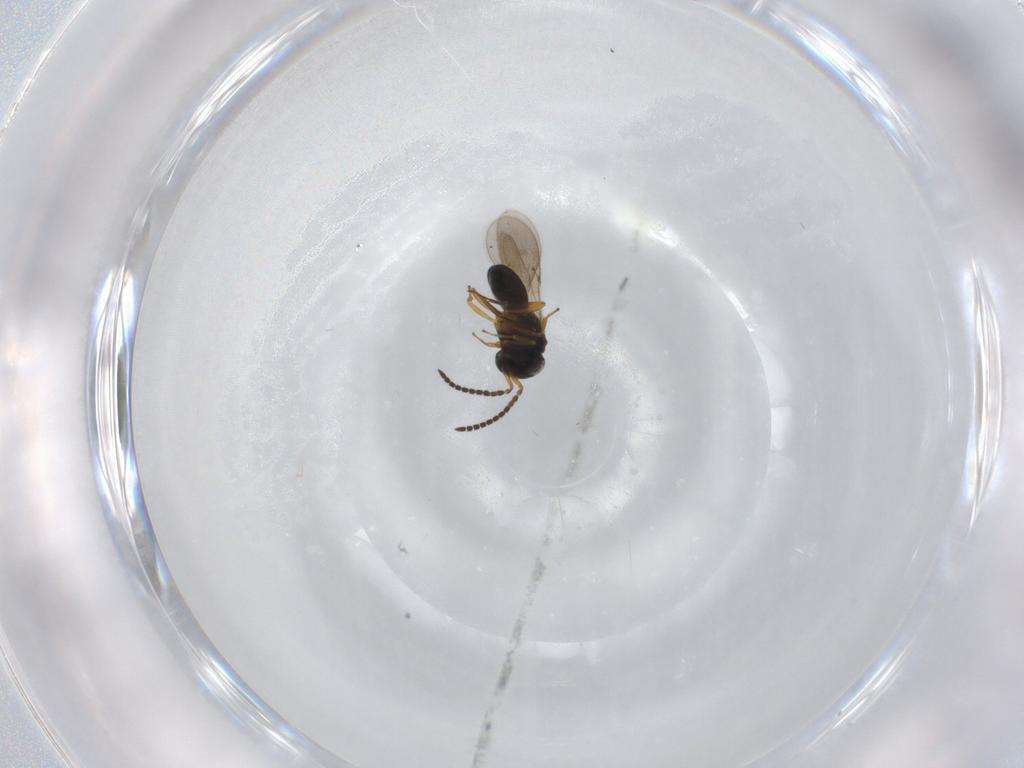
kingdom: Animalia
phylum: Arthropoda
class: Insecta
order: Hymenoptera
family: Scelionidae
